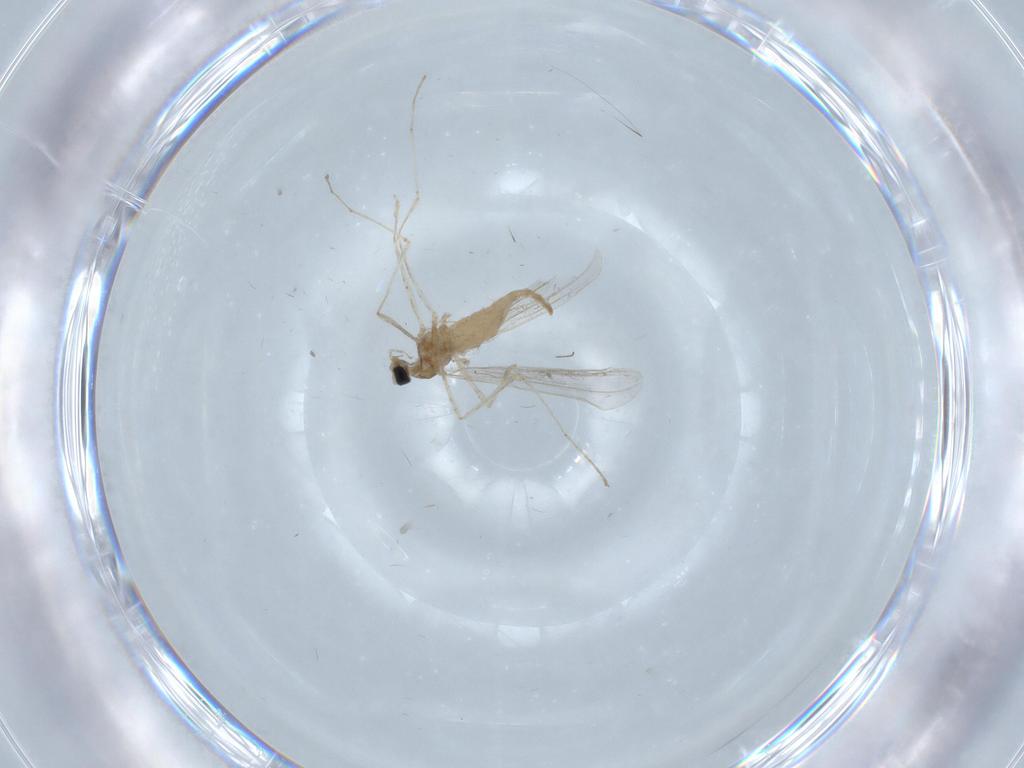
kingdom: Animalia
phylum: Arthropoda
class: Insecta
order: Diptera
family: Cecidomyiidae
